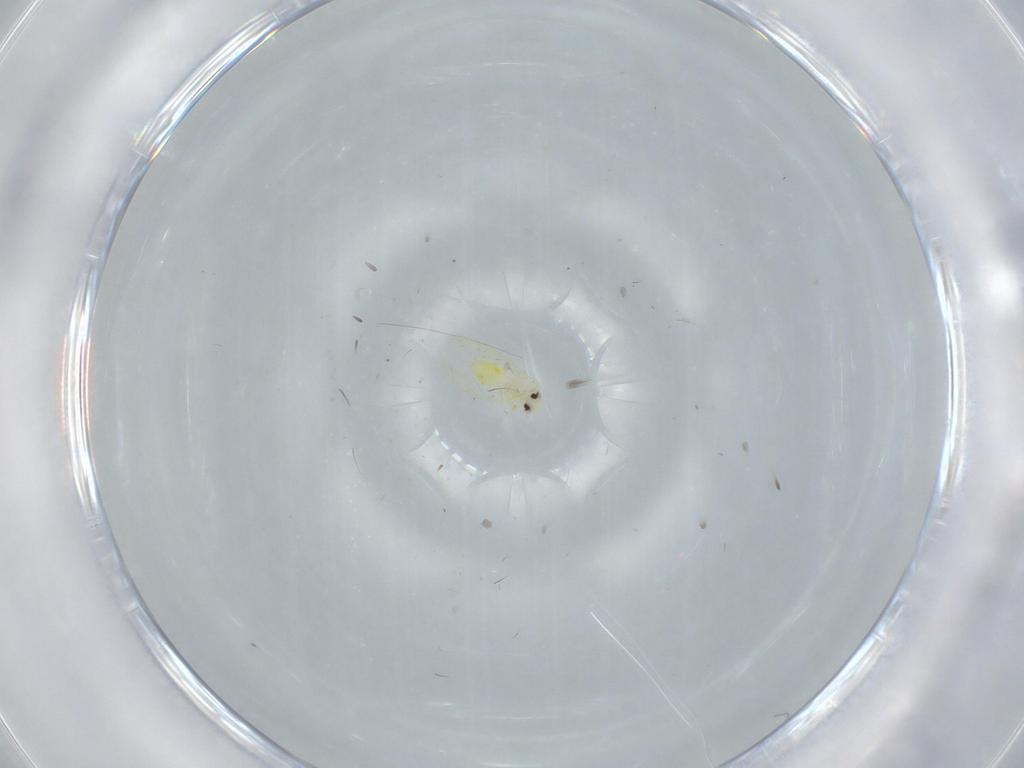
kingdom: Animalia
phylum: Arthropoda
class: Insecta
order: Hemiptera
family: Aleyrodidae
